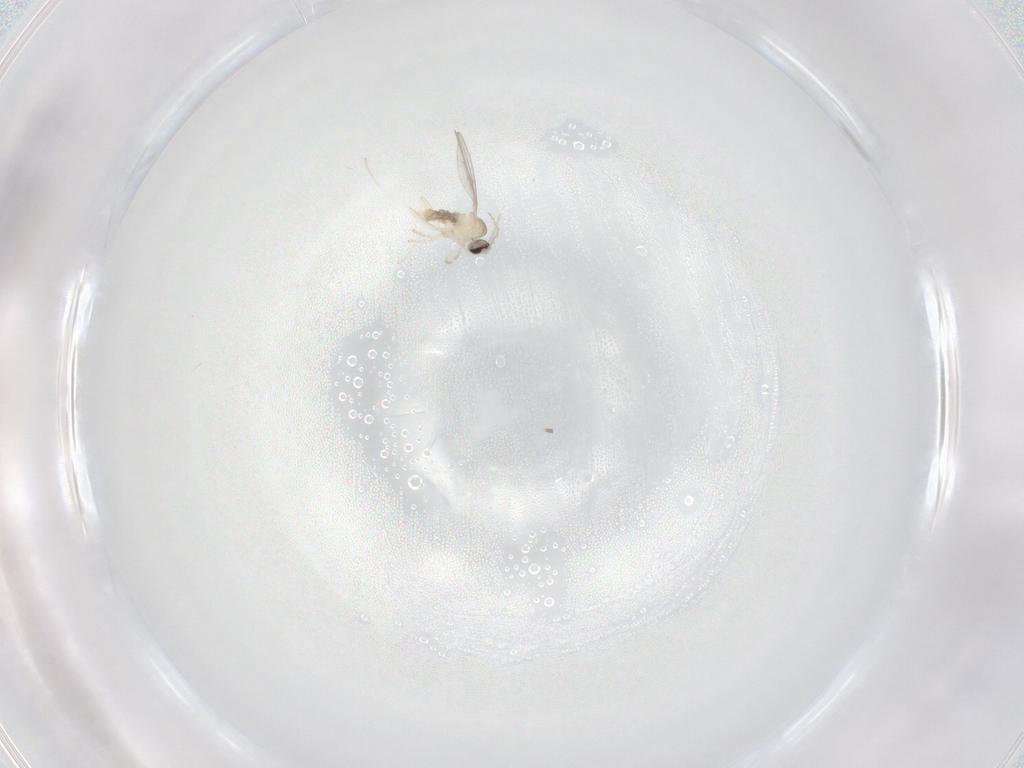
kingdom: Animalia
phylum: Arthropoda
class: Insecta
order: Diptera
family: Cecidomyiidae
